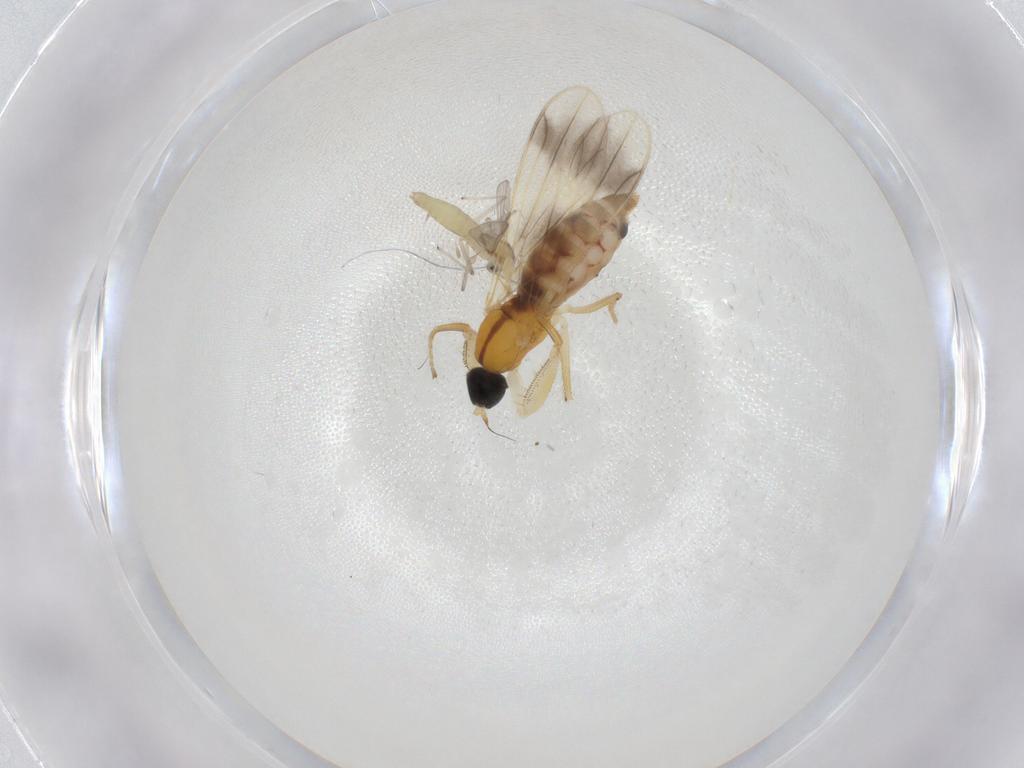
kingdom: Animalia
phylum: Arthropoda
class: Insecta
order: Diptera
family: Chironomidae
